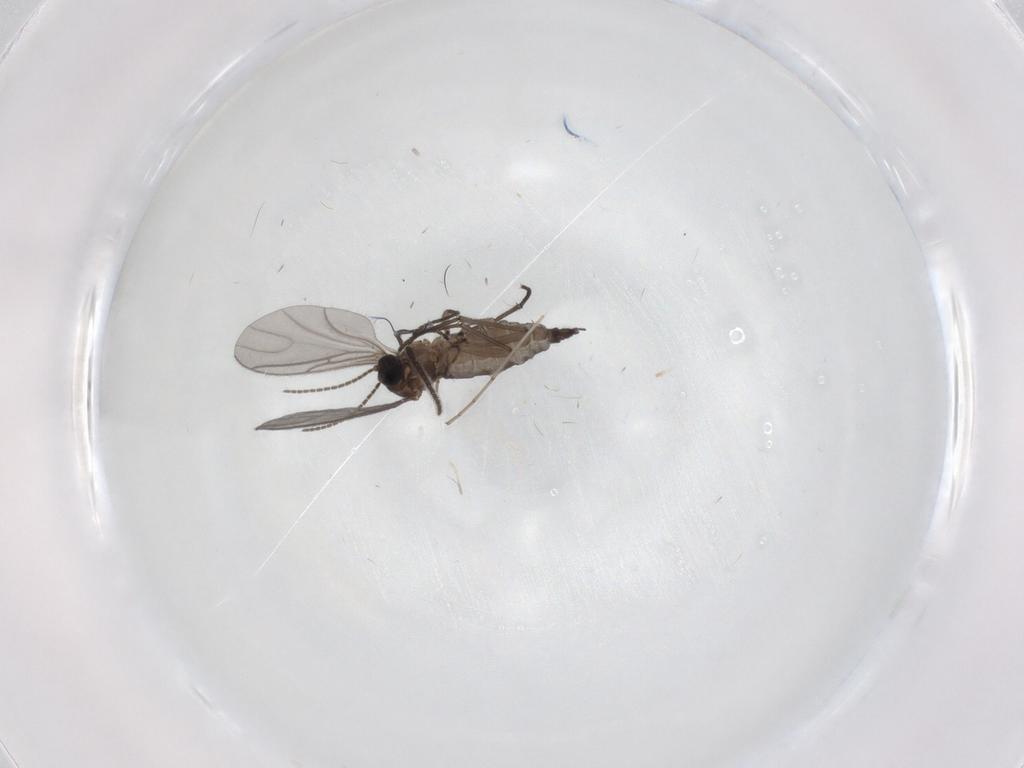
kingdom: Animalia
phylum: Arthropoda
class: Insecta
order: Diptera
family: Sciaridae
